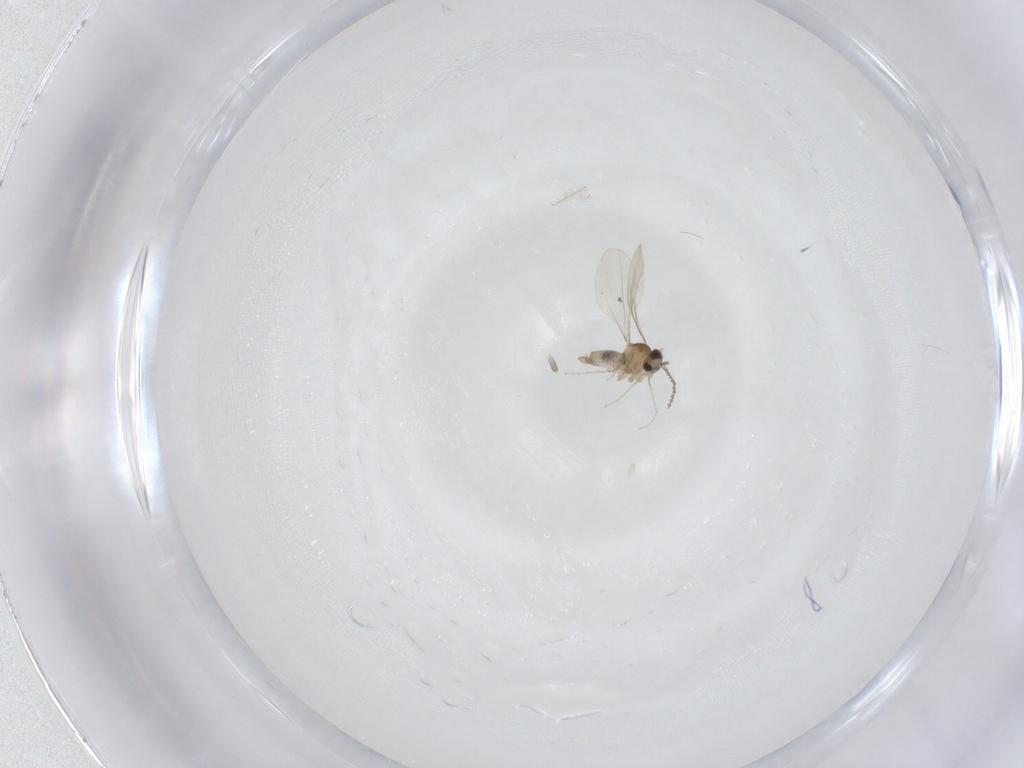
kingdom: Animalia
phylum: Arthropoda
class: Insecta
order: Diptera
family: Cecidomyiidae
